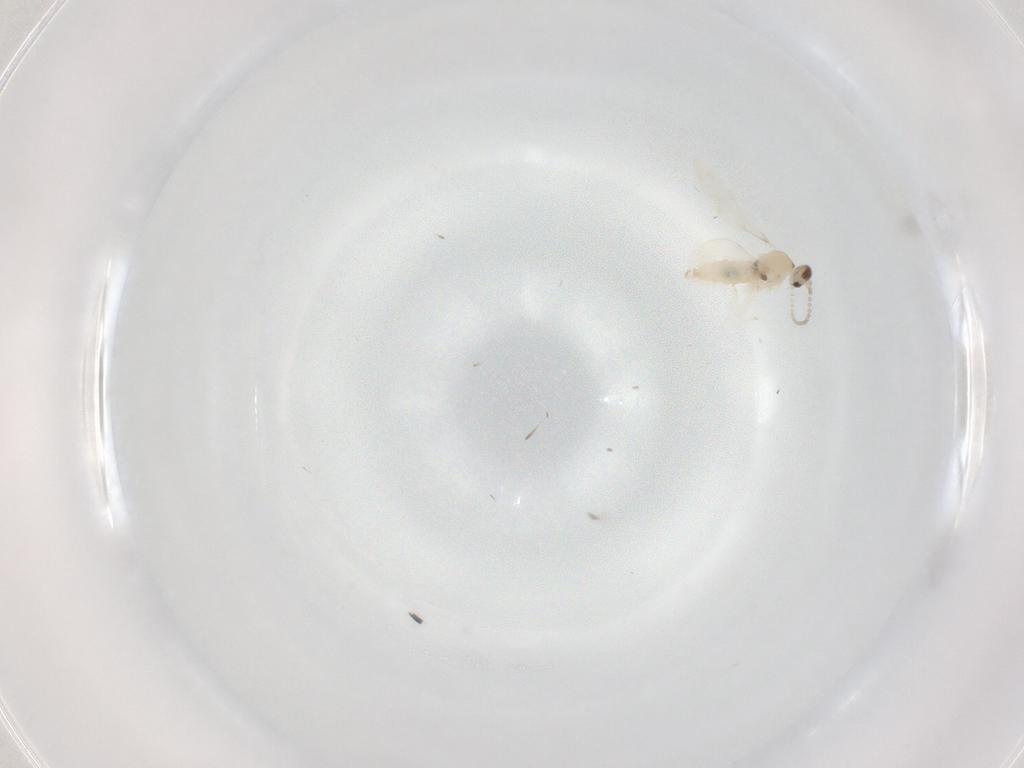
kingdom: Animalia
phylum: Arthropoda
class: Insecta
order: Diptera
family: Cecidomyiidae
